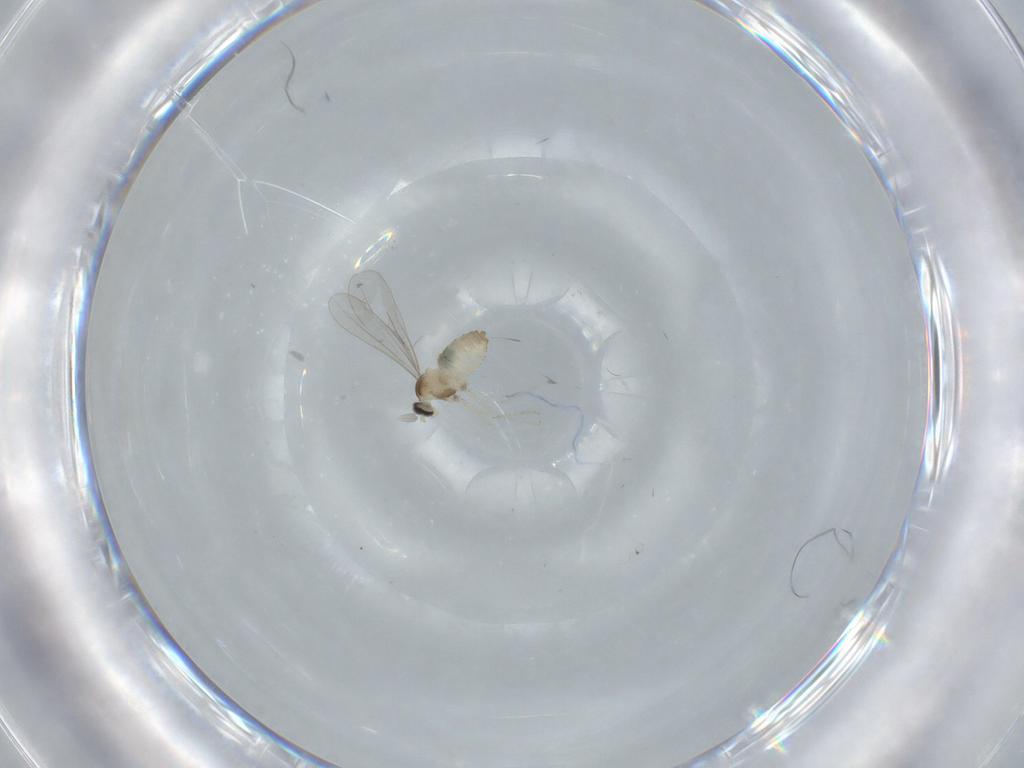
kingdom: Animalia
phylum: Arthropoda
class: Insecta
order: Diptera
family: Cecidomyiidae
